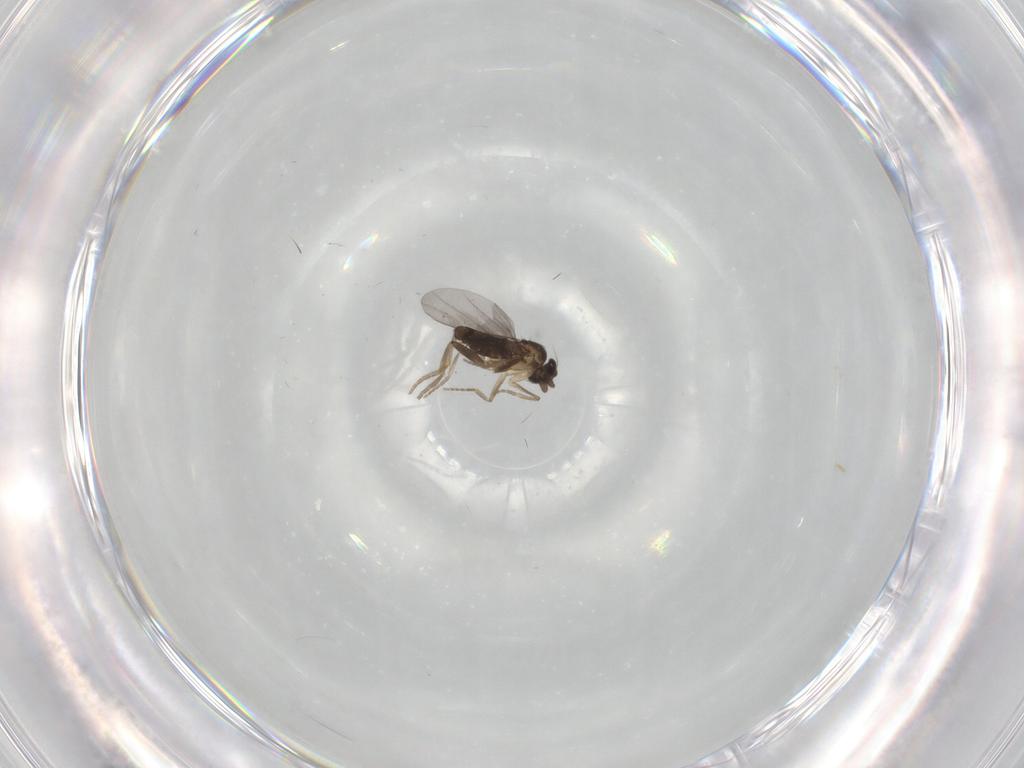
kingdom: Animalia
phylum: Arthropoda
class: Insecta
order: Diptera
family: Cecidomyiidae
